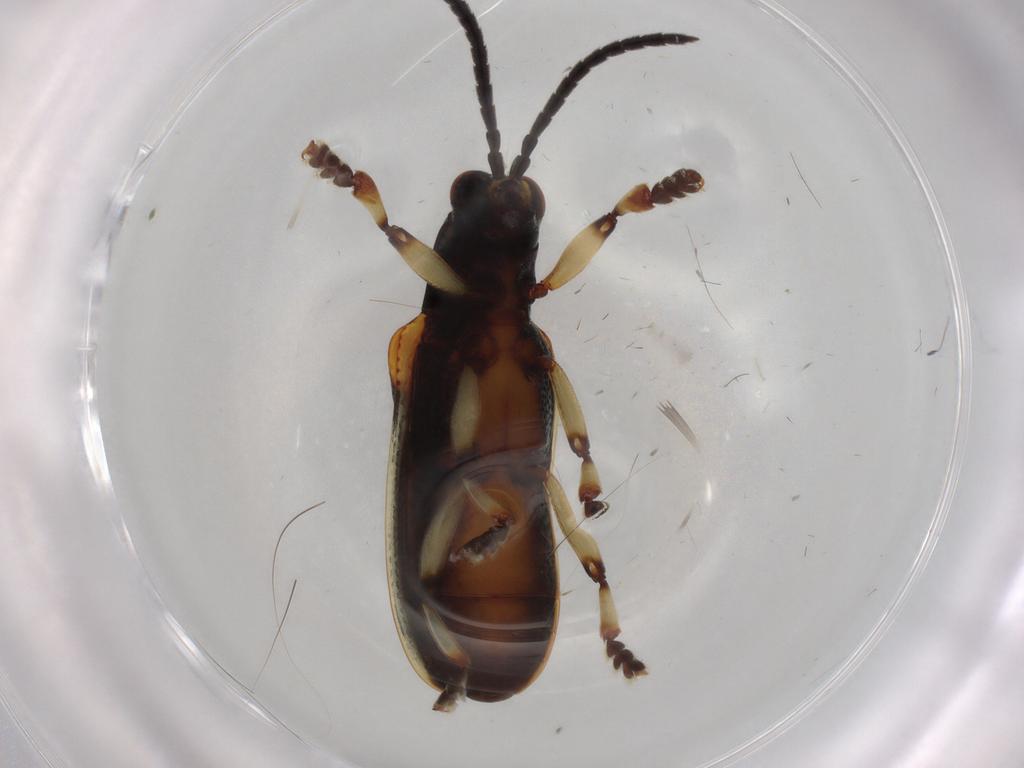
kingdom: Animalia
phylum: Arthropoda
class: Insecta
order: Coleoptera
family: Chrysomelidae
